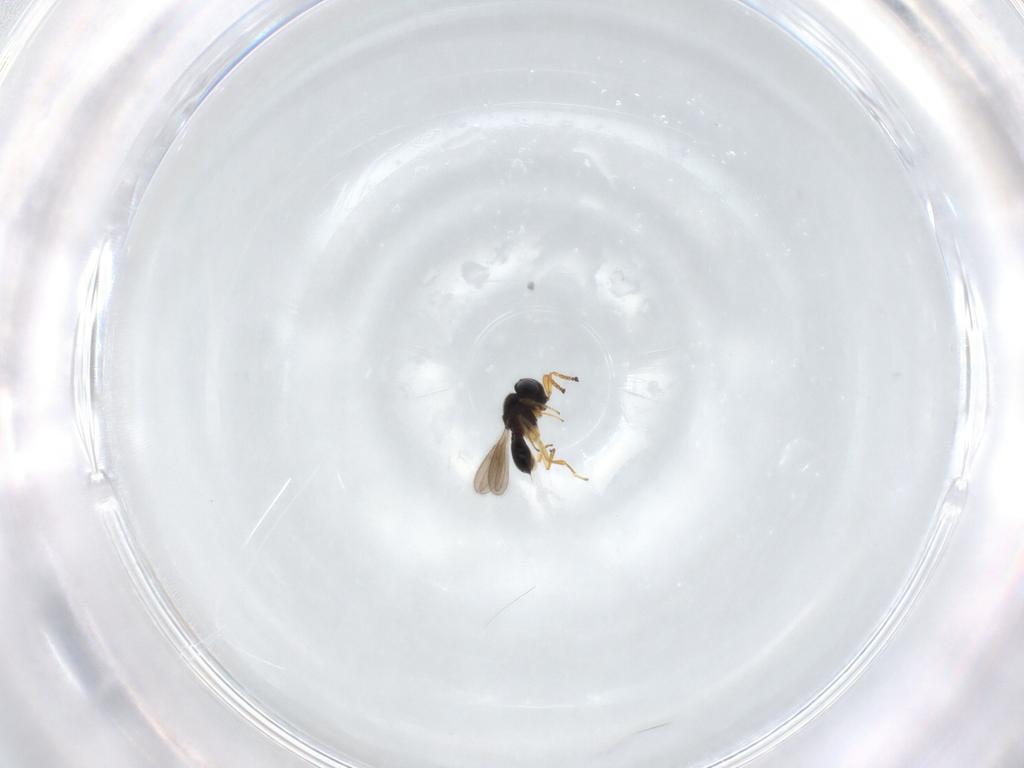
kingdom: Animalia
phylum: Arthropoda
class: Insecta
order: Hymenoptera
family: Scelionidae
